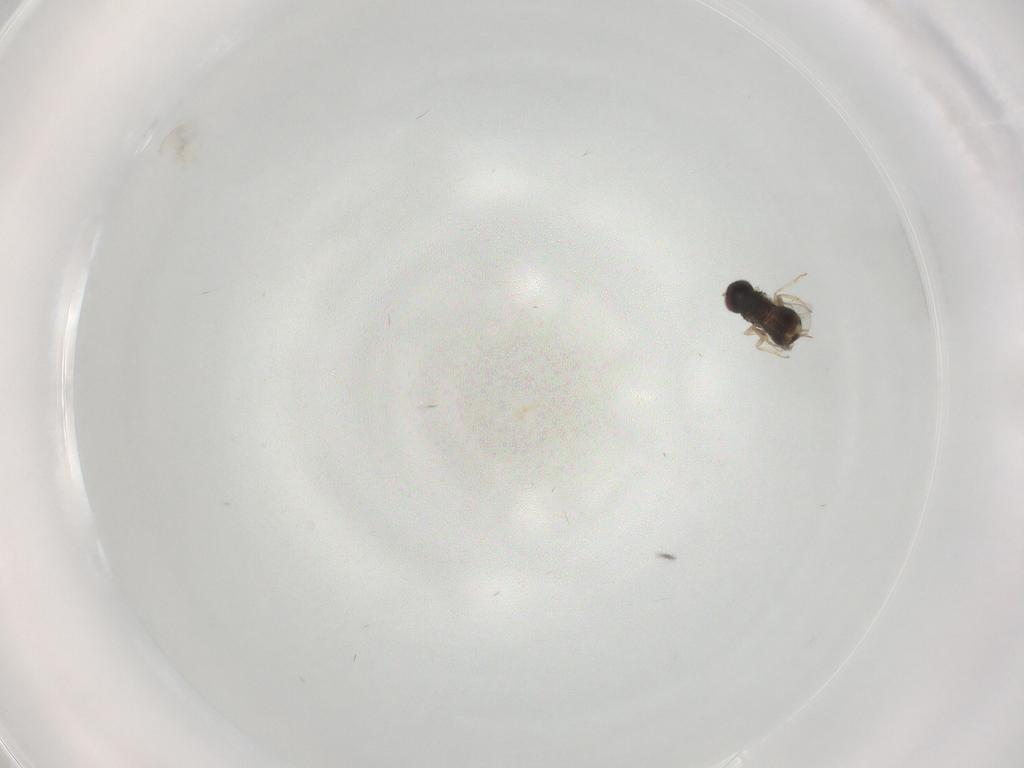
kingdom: Animalia
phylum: Arthropoda
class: Insecta
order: Hymenoptera
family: Aphelinidae
